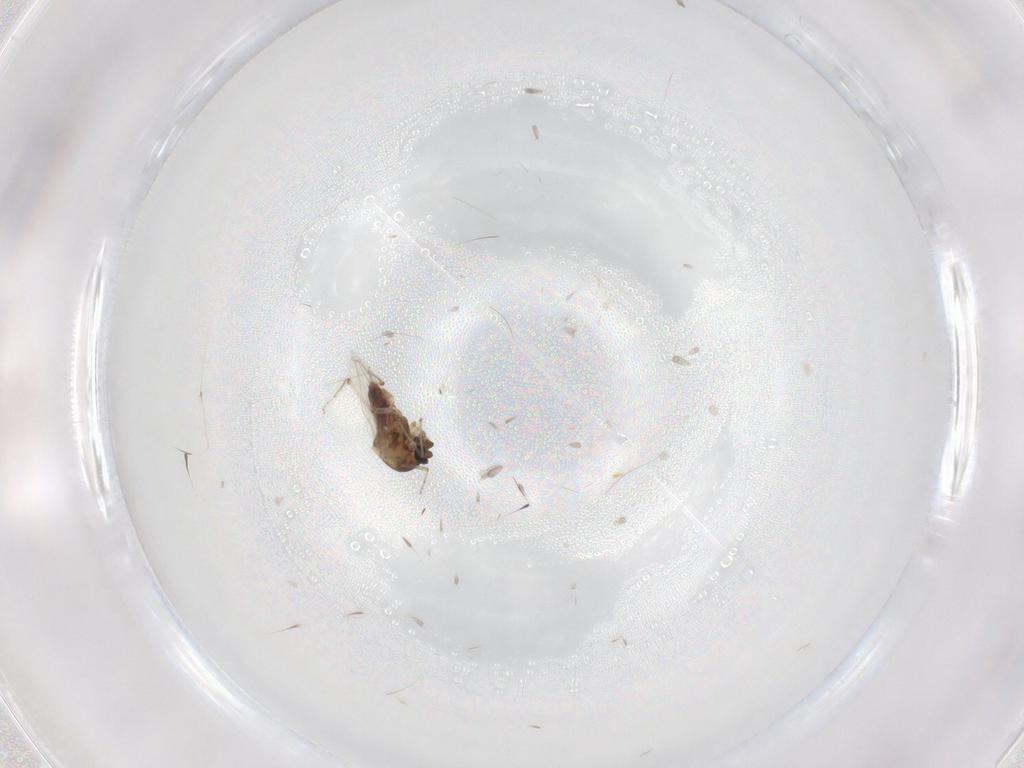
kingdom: Animalia
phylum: Arthropoda
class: Insecta
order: Diptera
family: Ceratopogonidae
